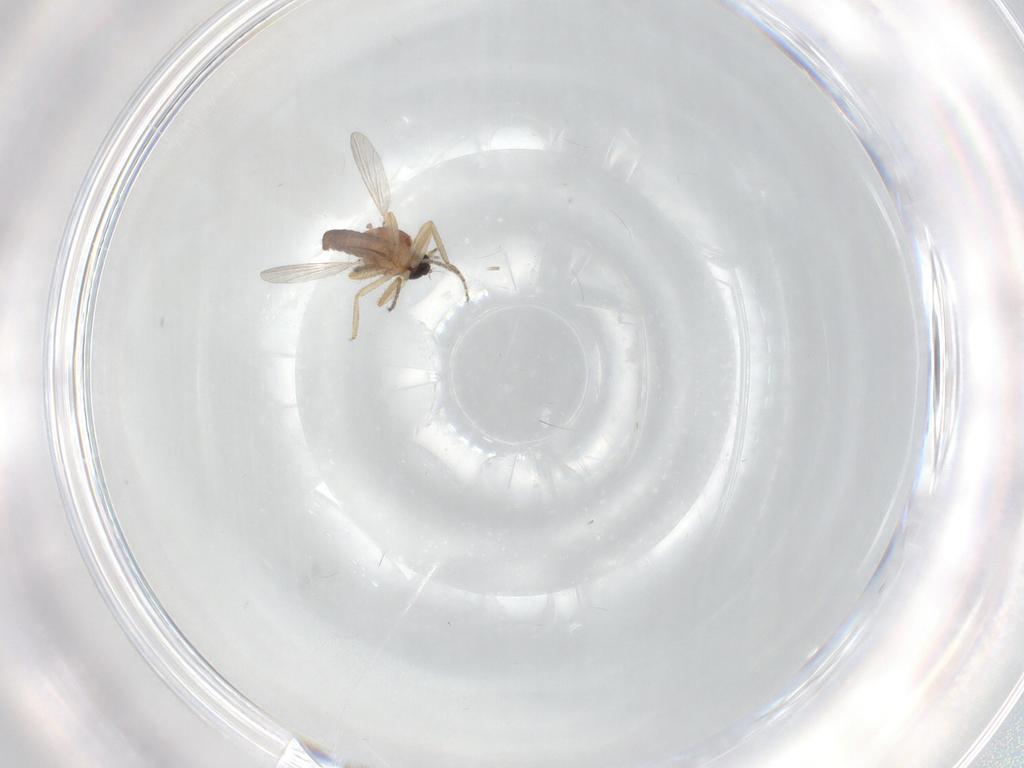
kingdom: Animalia
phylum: Arthropoda
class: Insecta
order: Diptera
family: Ceratopogonidae
